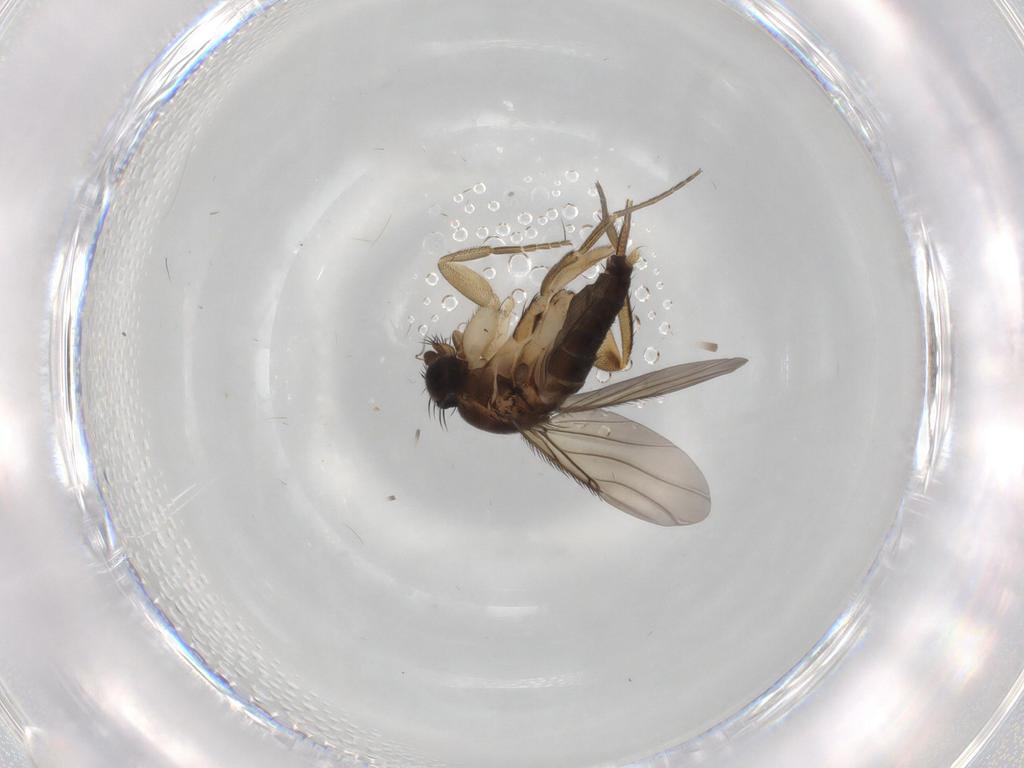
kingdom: Animalia
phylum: Arthropoda
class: Insecta
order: Diptera
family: Phoridae
